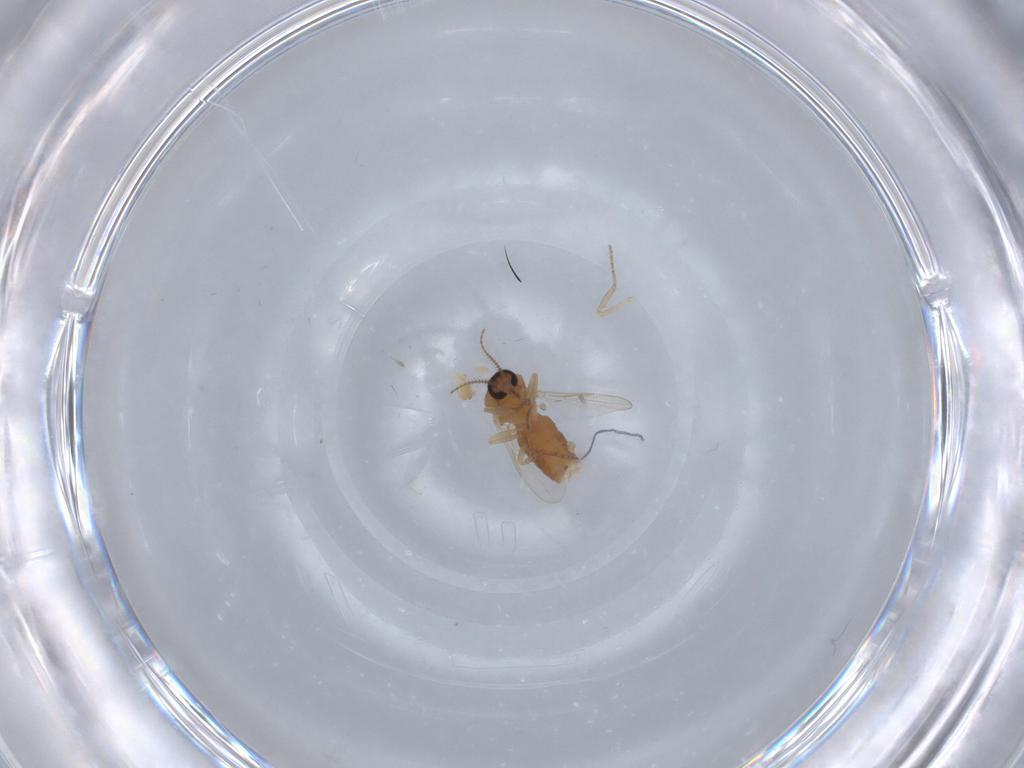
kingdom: Animalia
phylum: Arthropoda
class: Insecta
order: Diptera
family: Ceratopogonidae
